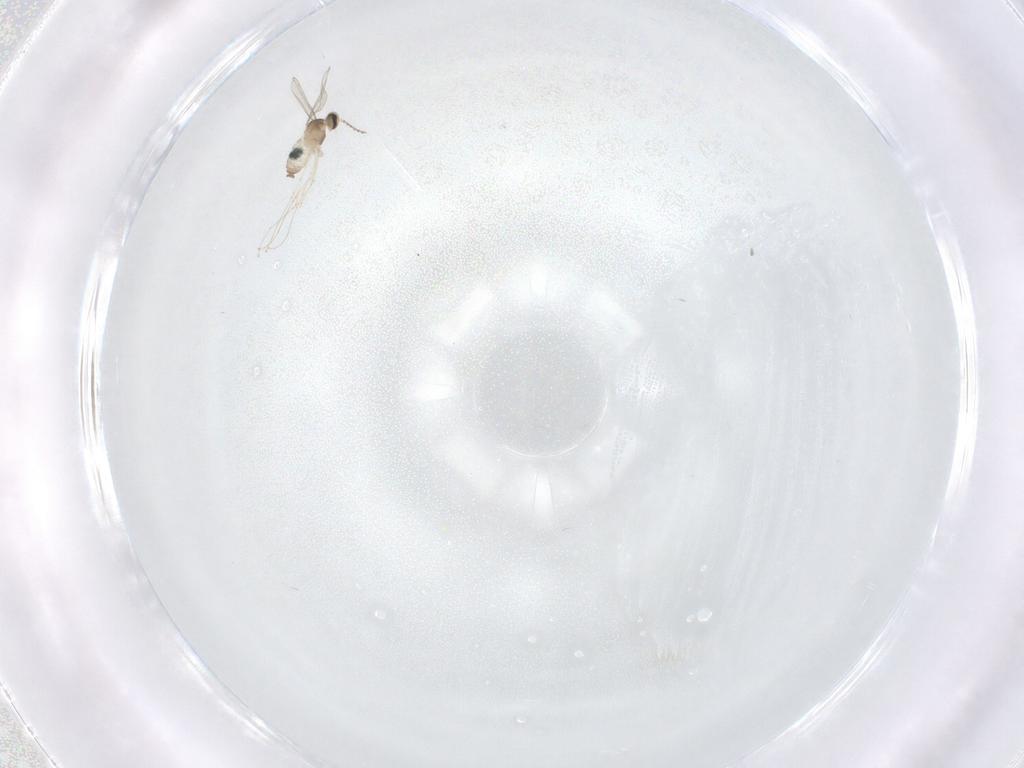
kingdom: Animalia
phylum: Arthropoda
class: Insecta
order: Diptera
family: Cecidomyiidae
